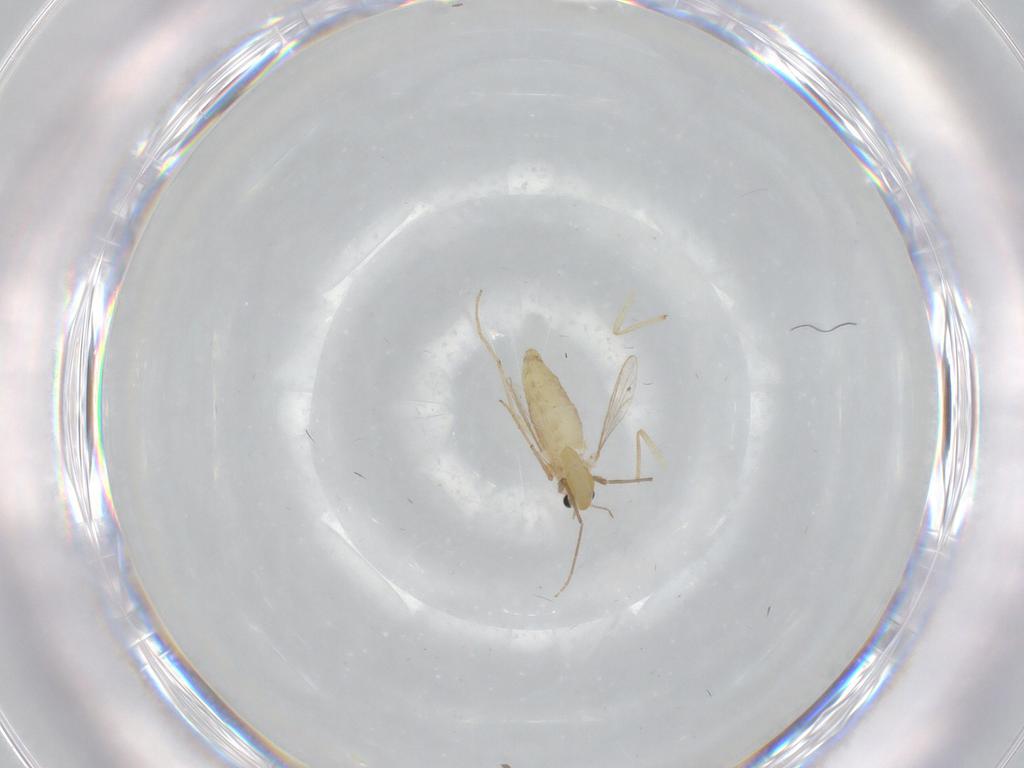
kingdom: Animalia
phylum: Arthropoda
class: Insecta
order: Diptera
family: Chironomidae
